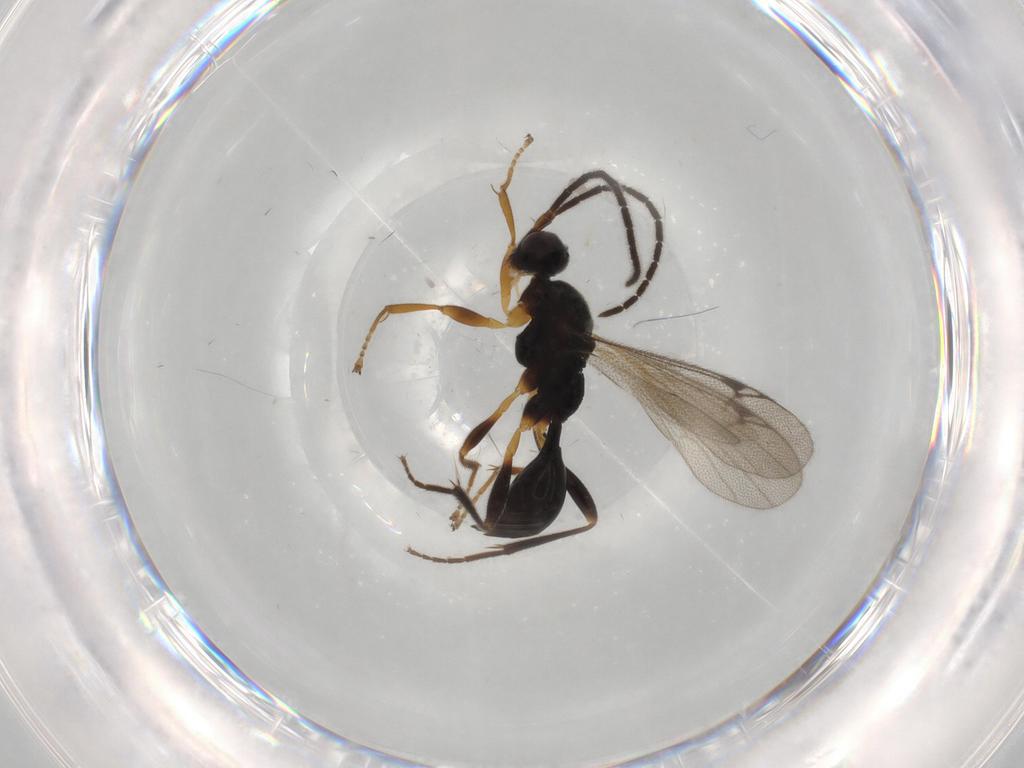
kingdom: Animalia
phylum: Arthropoda
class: Insecta
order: Hymenoptera
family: Proctotrupidae
